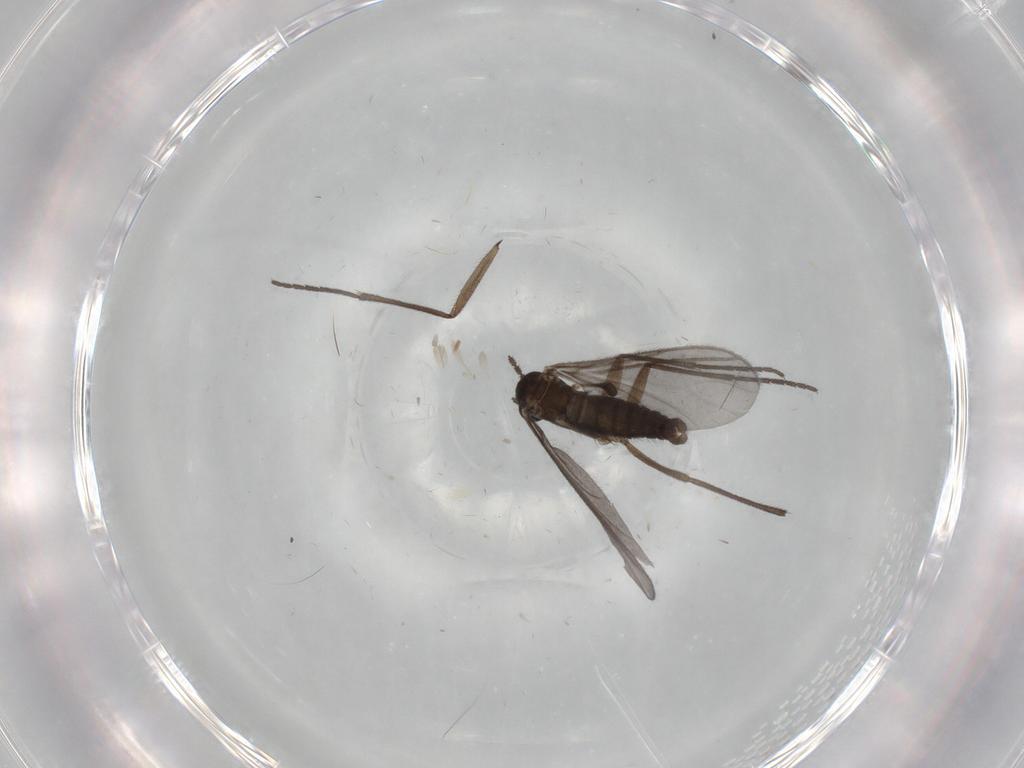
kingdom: Animalia
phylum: Arthropoda
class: Insecta
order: Diptera
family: Sciaridae
